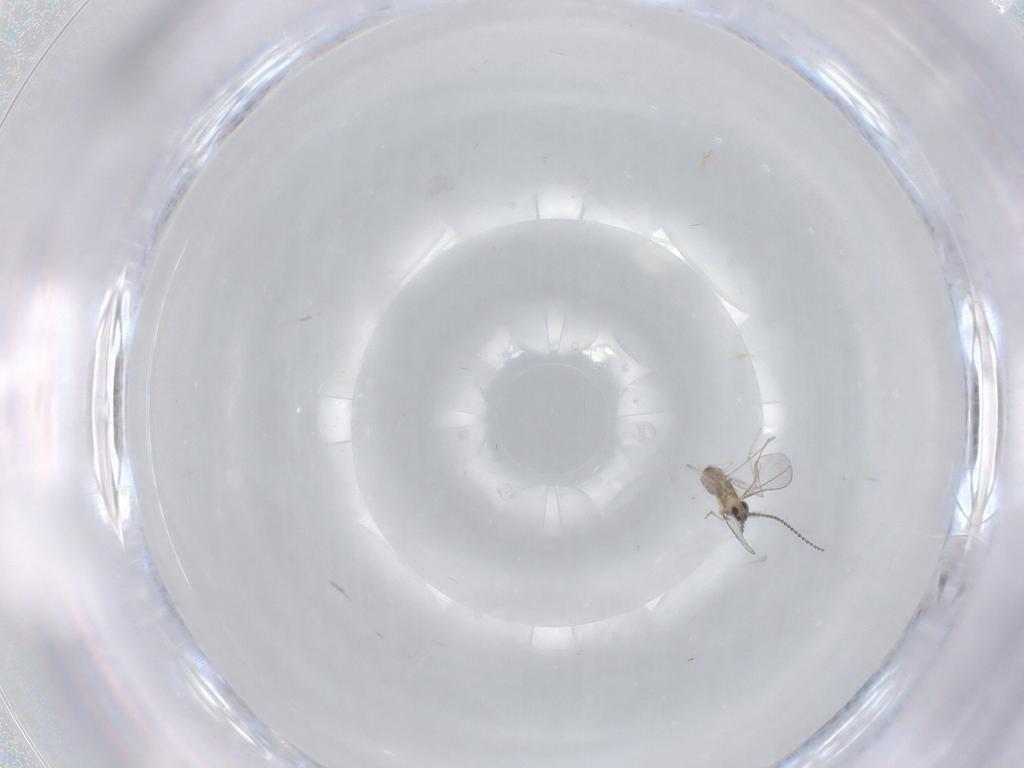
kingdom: Animalia
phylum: Arthropoda
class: Insecta
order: Diptera
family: Cecidomyiidae
